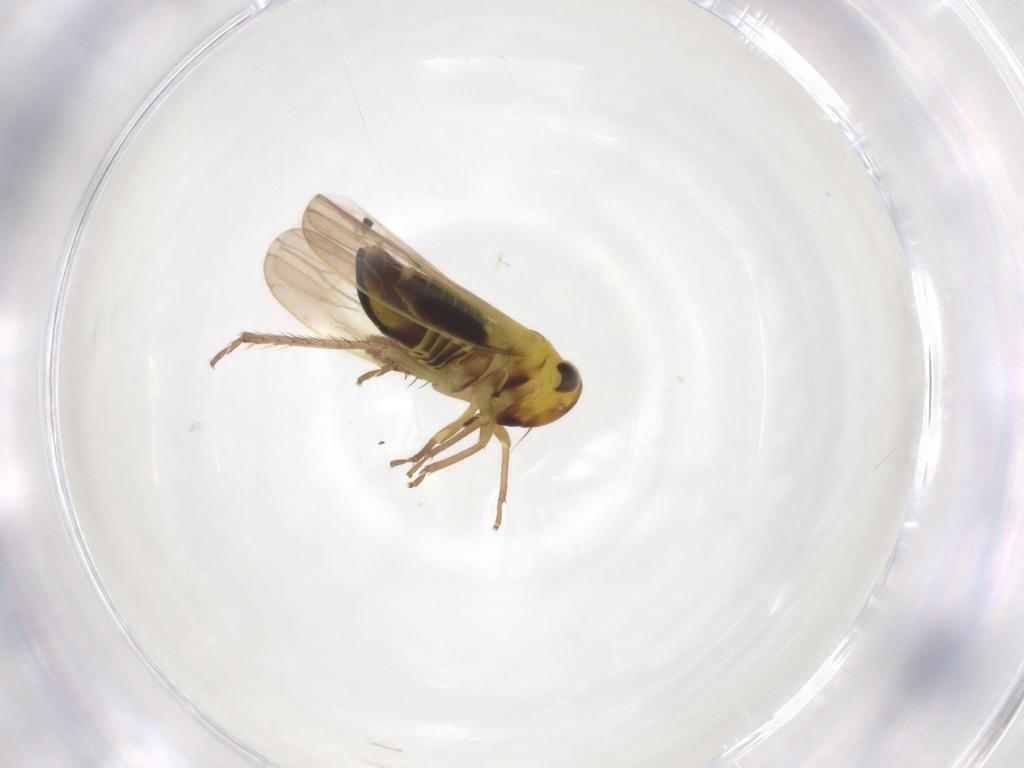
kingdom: Animalia
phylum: Arthropoda
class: Insecta
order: Hemiptera
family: Cicadellidae
